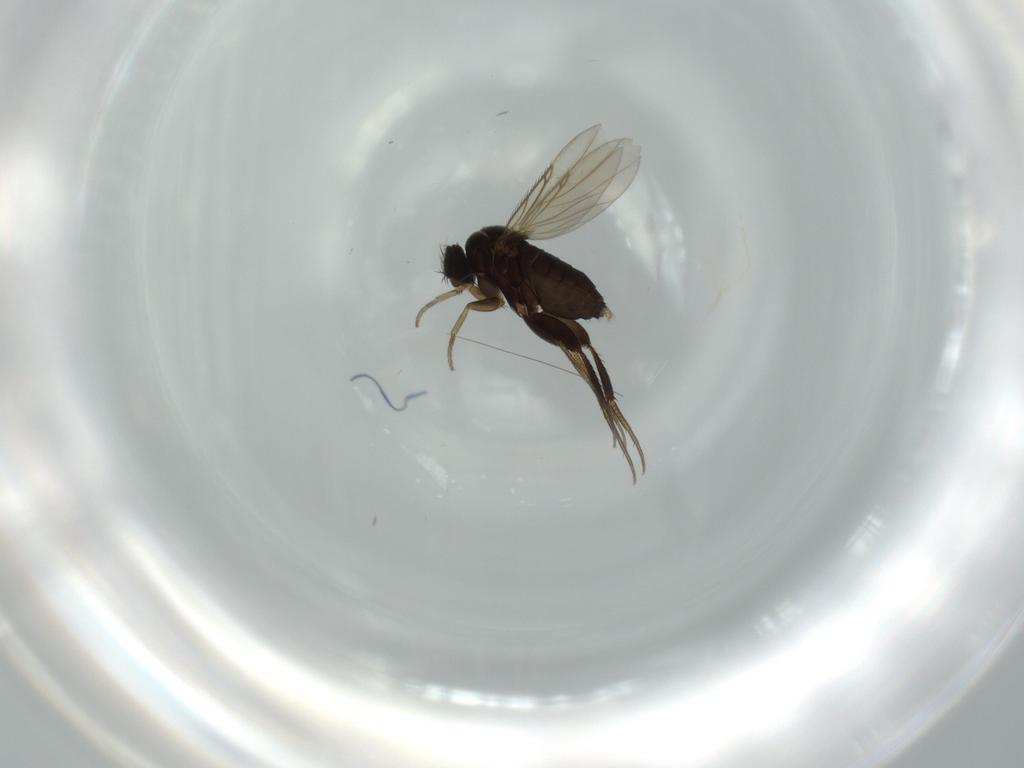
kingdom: Animalia
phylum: Arthropoda
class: Insecta
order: Diptera
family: Phoridae
